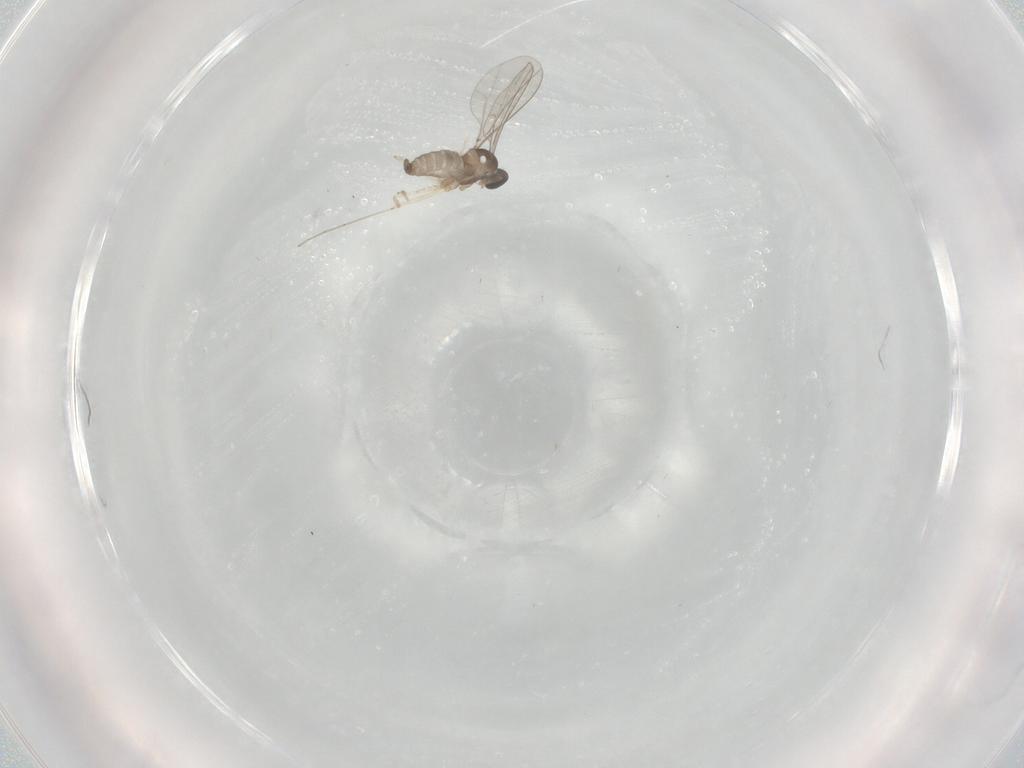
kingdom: Animalia
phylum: Arthropoda
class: Insecta
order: Diptera
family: Cecidomyiidae
